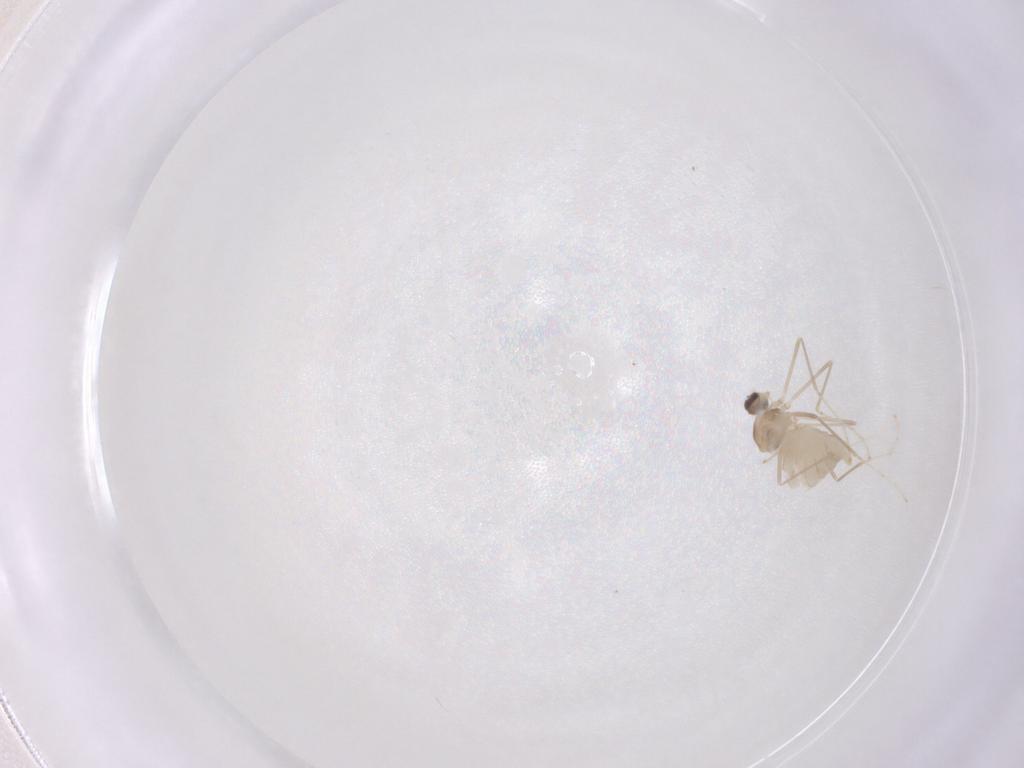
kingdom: Animalia
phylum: Arthropoda
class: Insecta
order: Diptera
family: Cecidomyiidae
